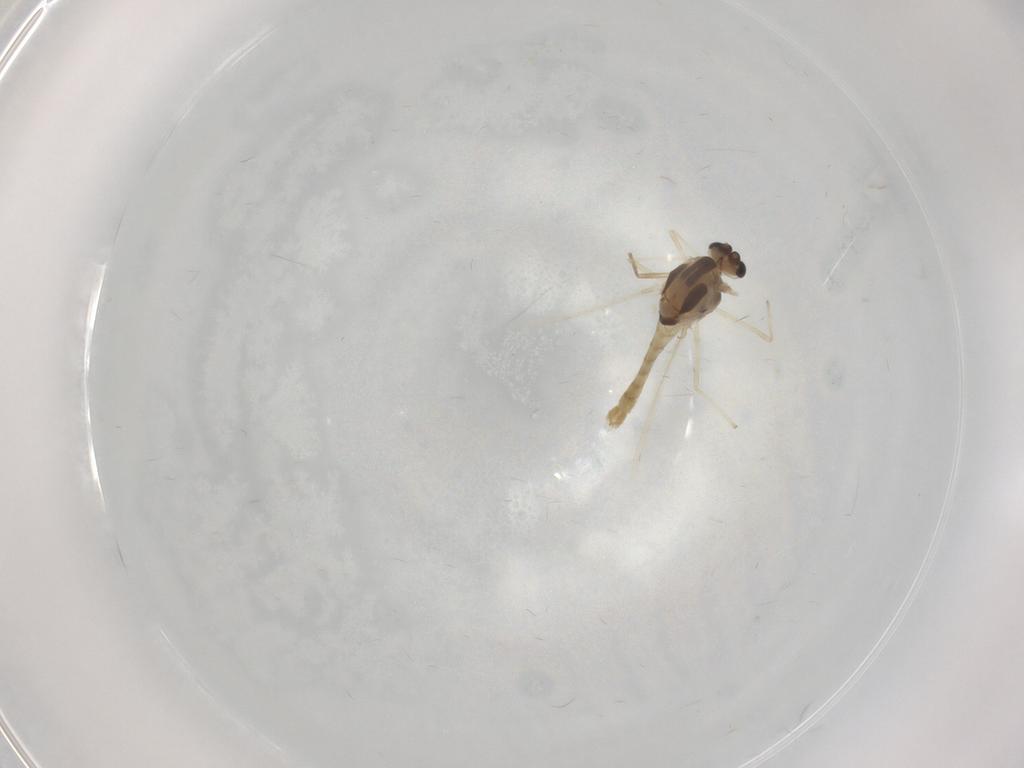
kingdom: Animalia
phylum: Arthropoda
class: Insecta
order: Diptera
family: Chironomidae
